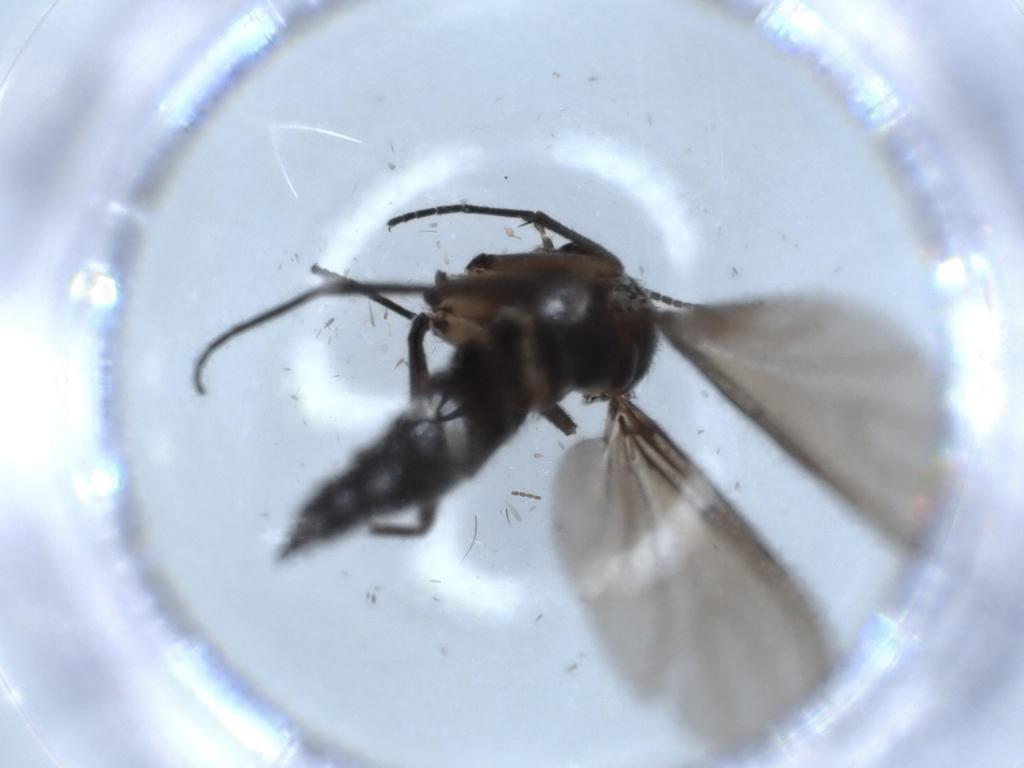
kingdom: Animalia
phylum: Arthropoda
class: Insecta
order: Diptera
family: Sciaridae
